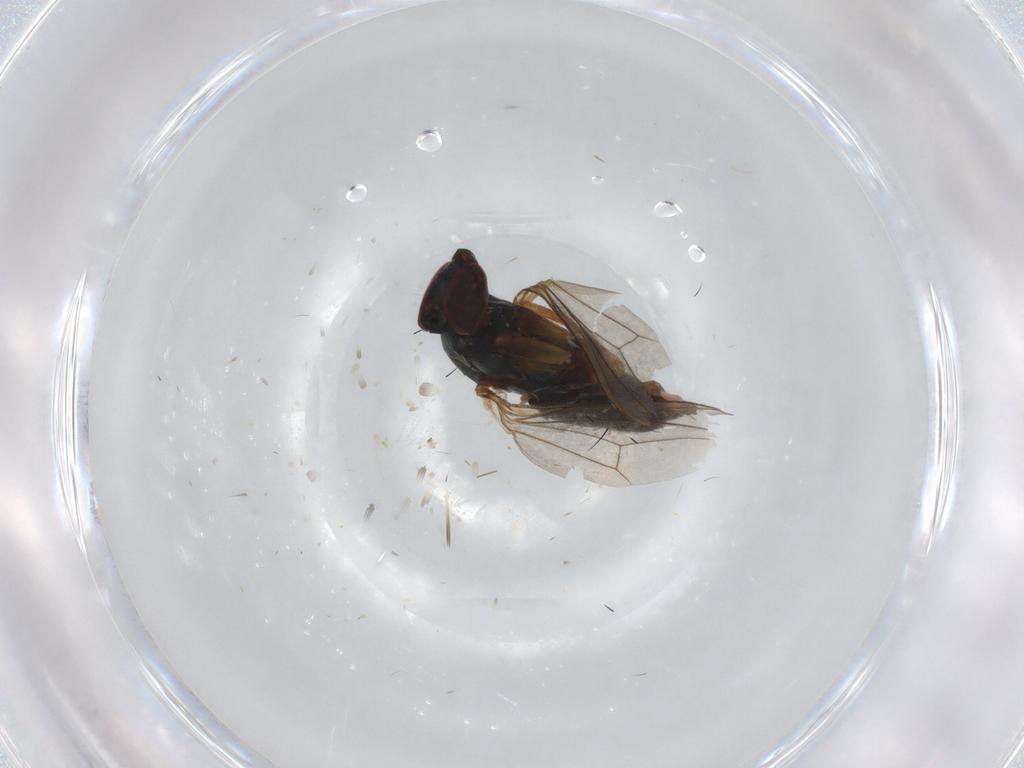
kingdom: Animalia
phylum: Arthropoda
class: Insecta
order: Diptera
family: Dolichopodidae
